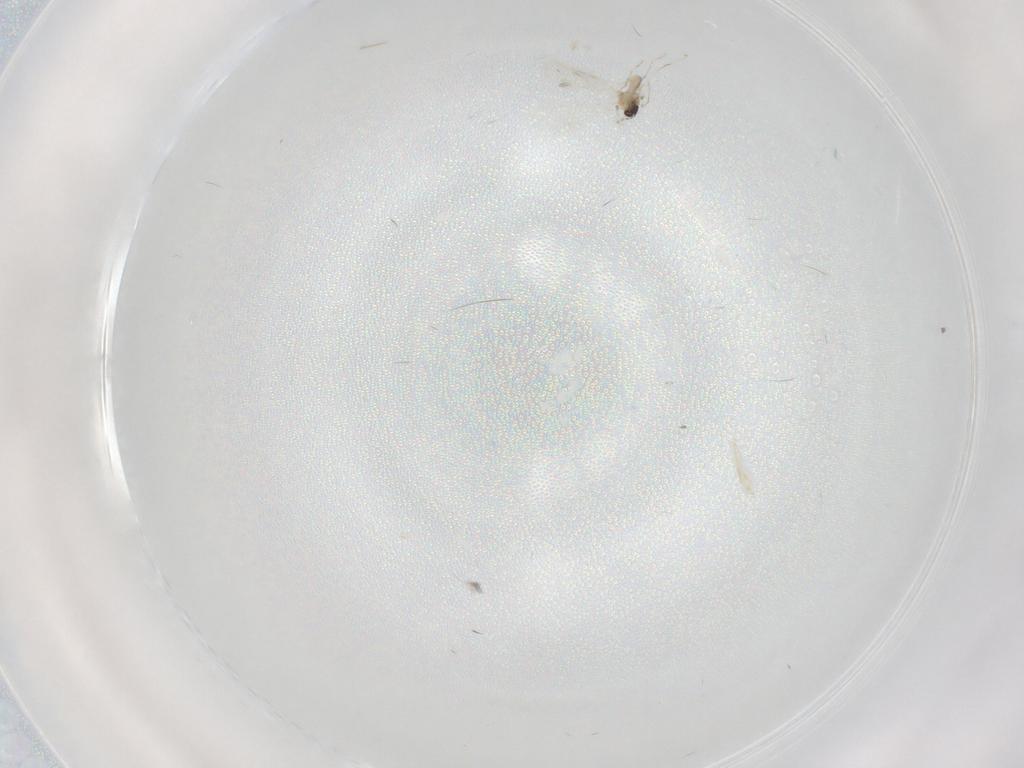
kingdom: Animalia
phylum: Arthropoda
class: Insecta
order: Diptera
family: Cecidomyiidae
